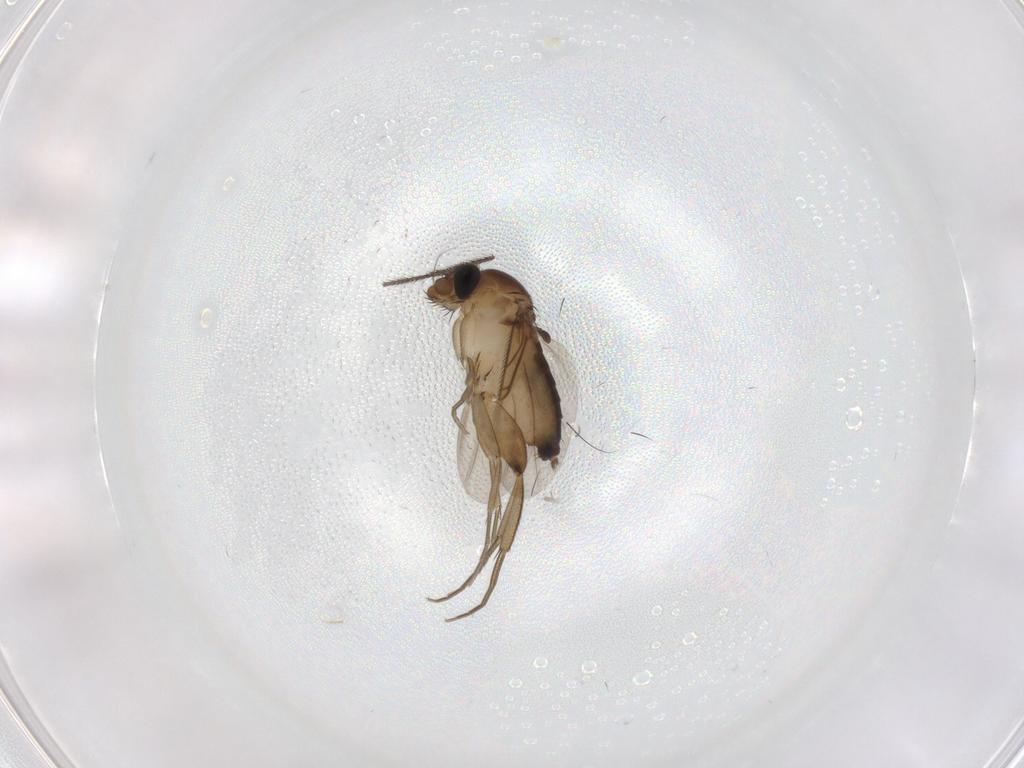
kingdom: Animalia
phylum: Arthropoda
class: Insecta
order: Diptera
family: Phoridae
